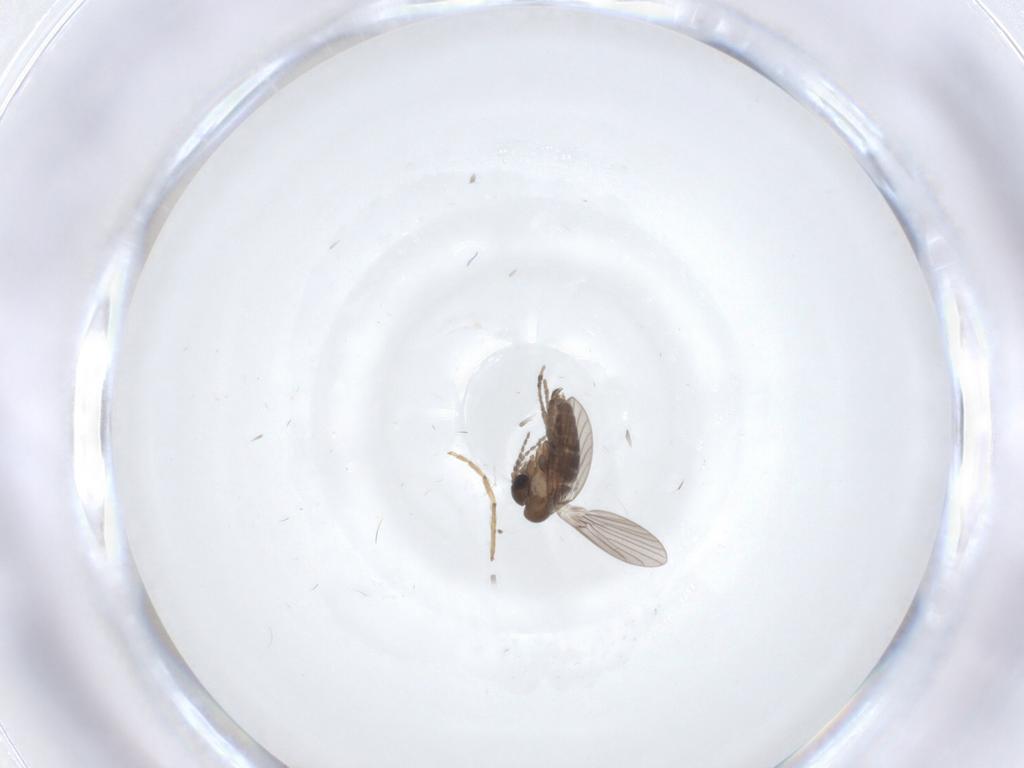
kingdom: Animalia
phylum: Arthropoda
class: Insecta
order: Diptera
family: Chironomidae
